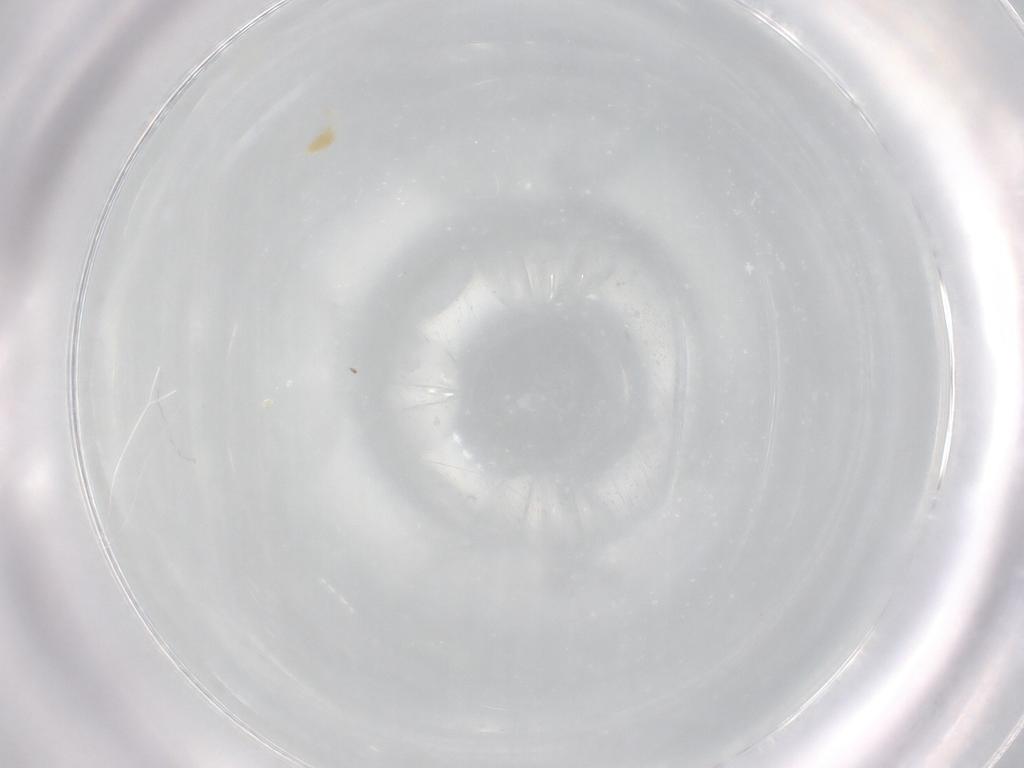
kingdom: Animalia
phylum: Arthropoda
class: Arachnida
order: Trombidiformes
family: Tetranychidae
